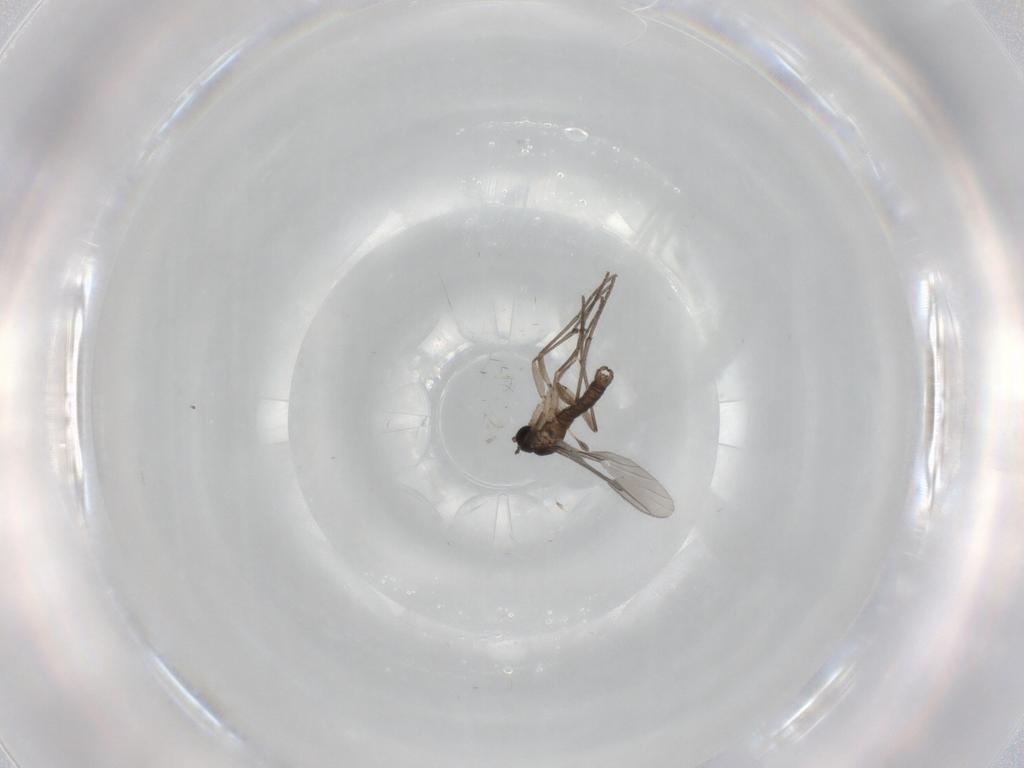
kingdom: Animalia
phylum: Arthropoda
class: Insecta
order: Diptera
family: Sciaridae
